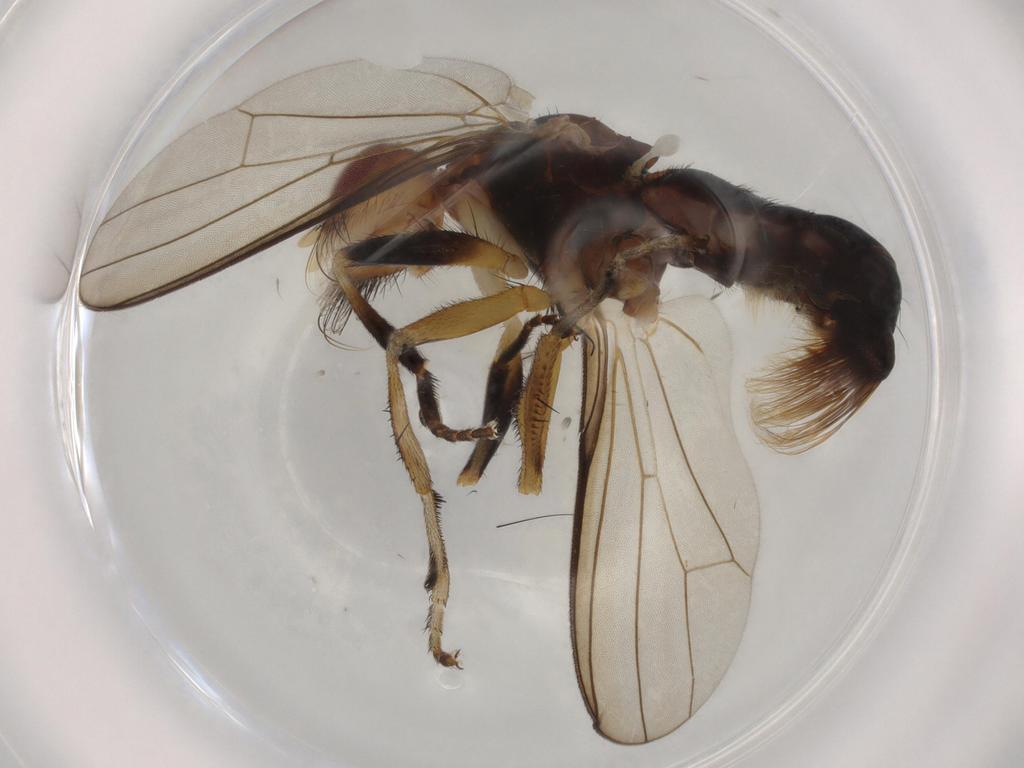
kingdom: Animalia
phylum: Arthropoda
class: Insecta
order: Diptera
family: Piophilidae
